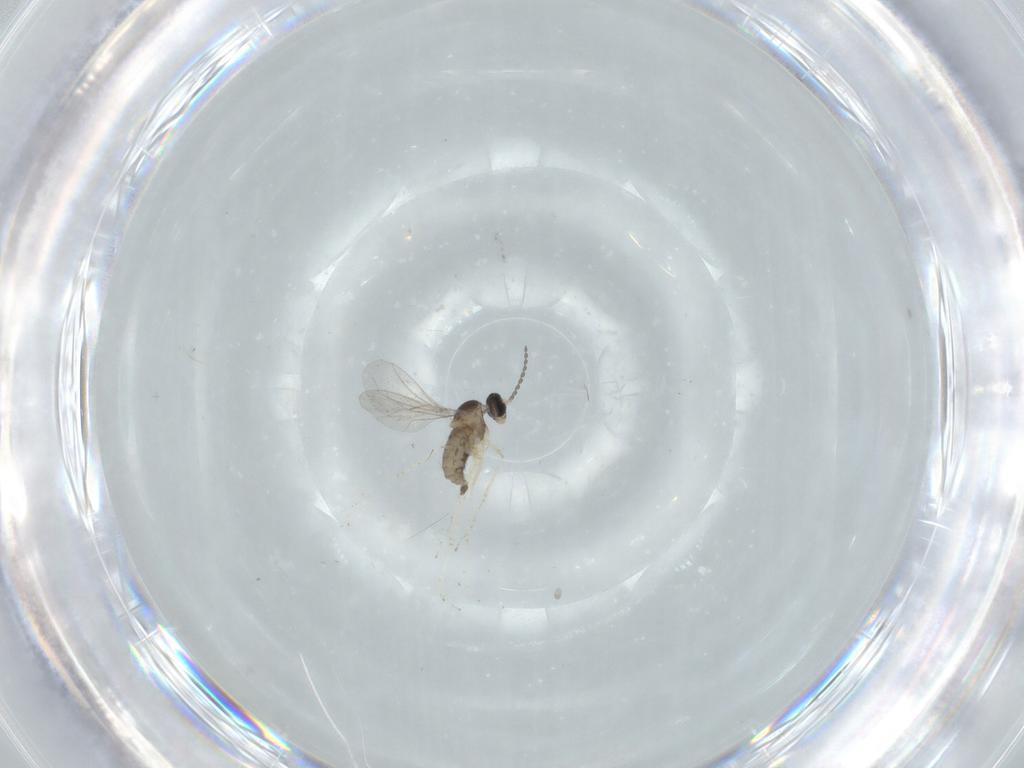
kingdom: Animalia
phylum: Arthropoda
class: Insecta
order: Diptera
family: Cecidomyiidae
